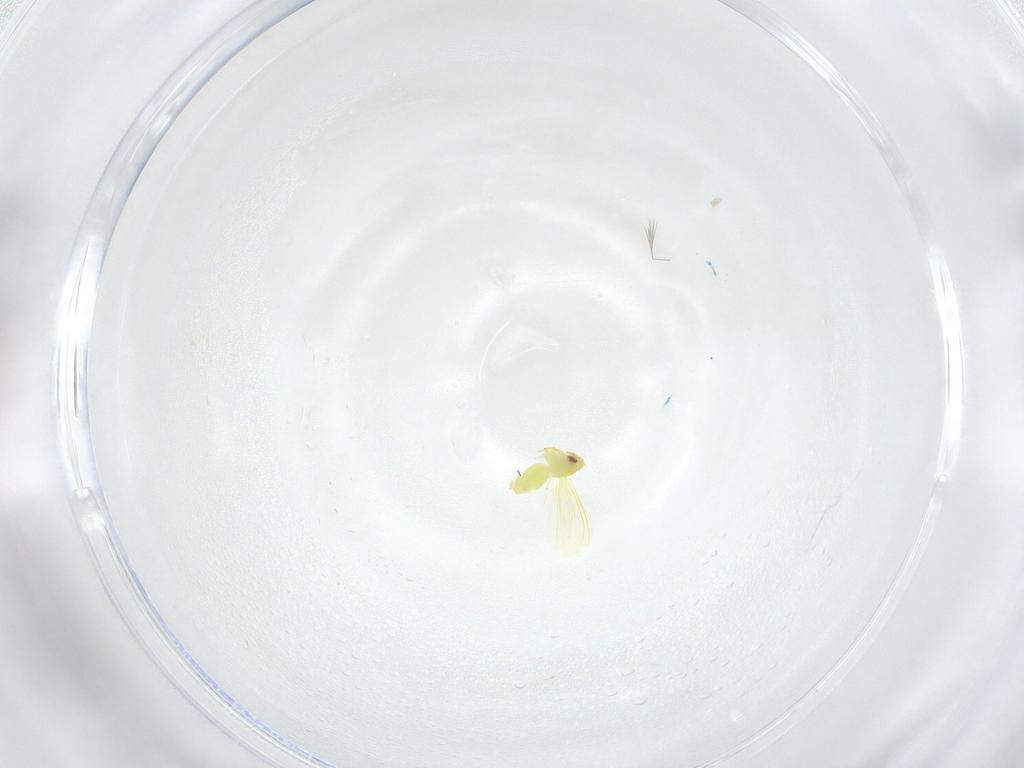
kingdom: Animalia
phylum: Arthropoda
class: Insecta
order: Hemiptera
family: Aleyrodidae
